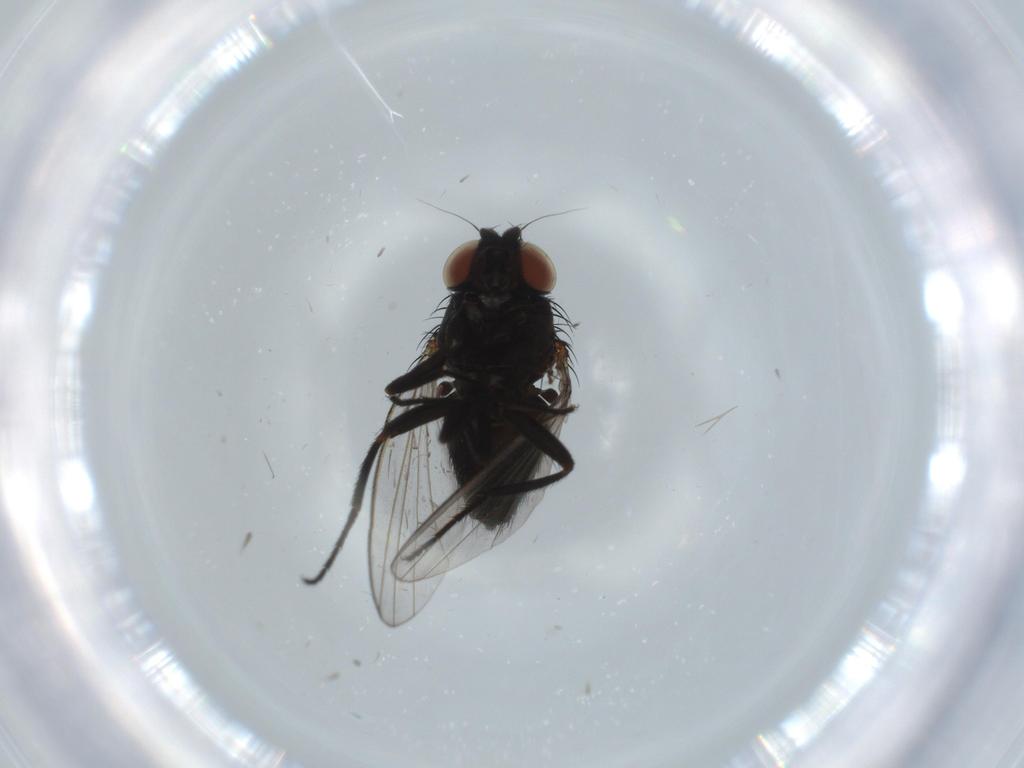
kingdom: Animalia
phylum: Arthropoda
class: Insecta
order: Diptera
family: Milichiidae
